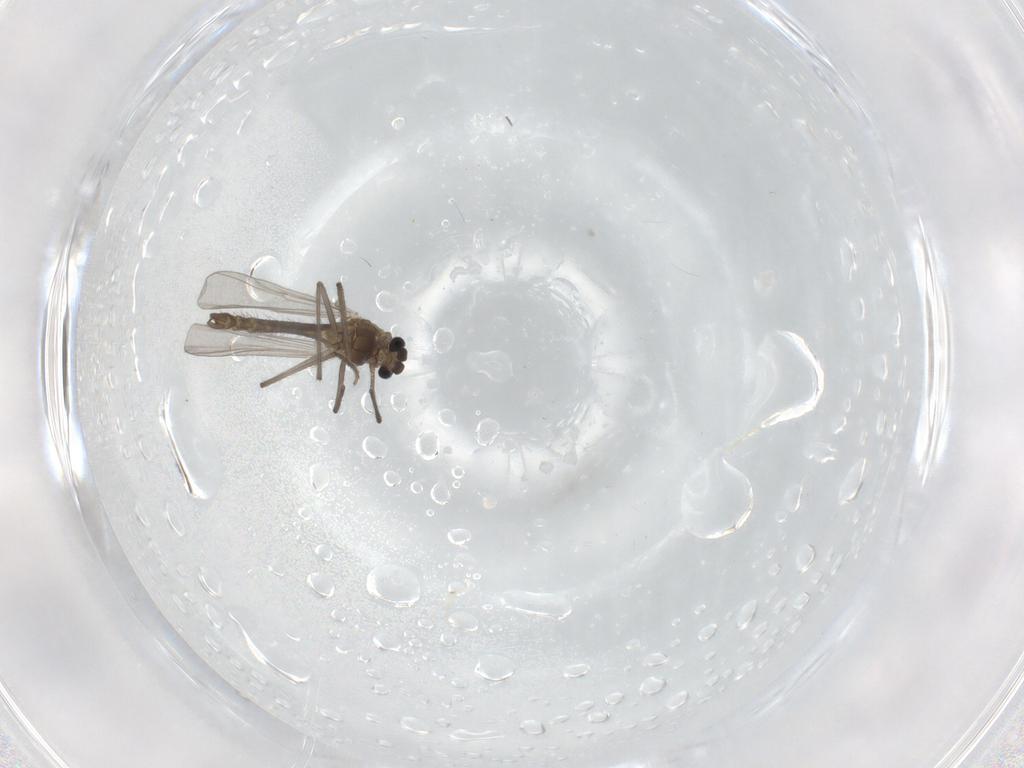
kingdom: Animalia
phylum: Arthropoda
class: Insecta
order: Diptera
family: Chironomidae
